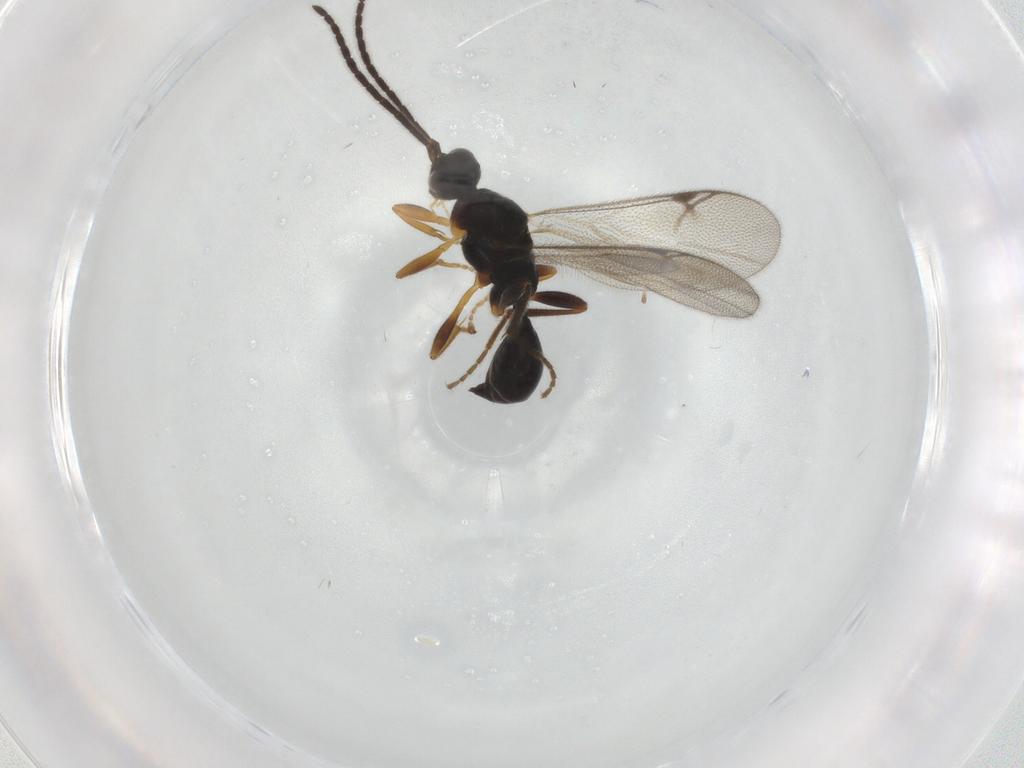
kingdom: Animalia
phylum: Arthropoda
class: Insecta
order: Hymenoptera
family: Proctotrupidae
